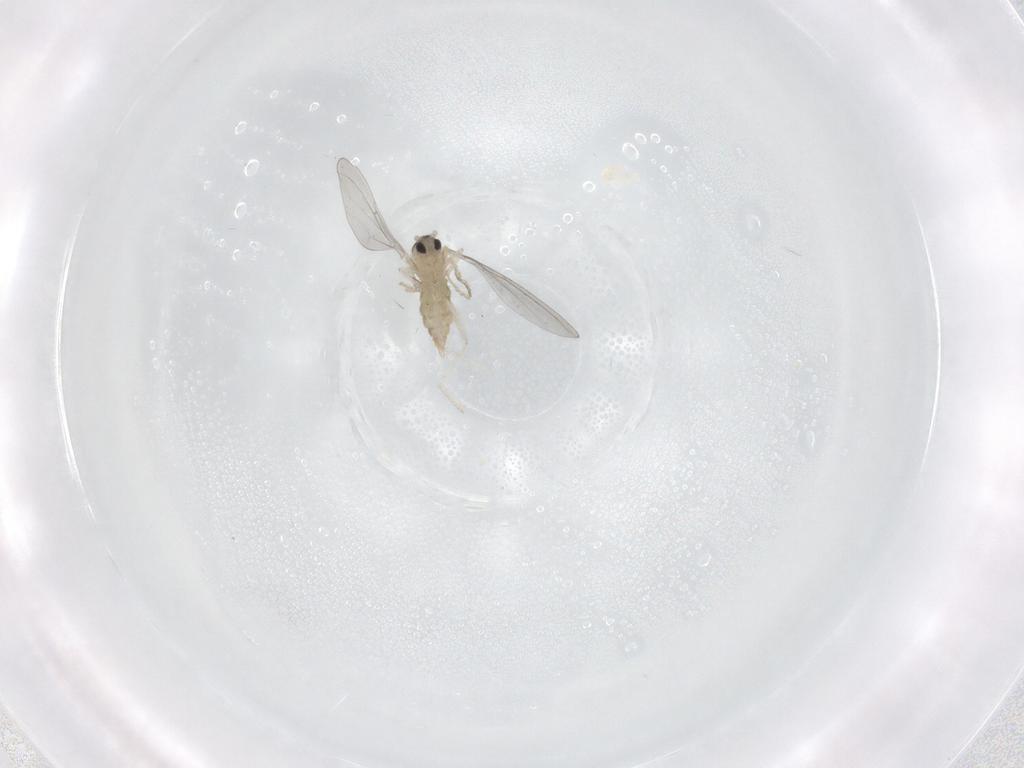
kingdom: Animalia
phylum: Arthropoda
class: Insecta
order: Diptera
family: Cecidomyiidae
